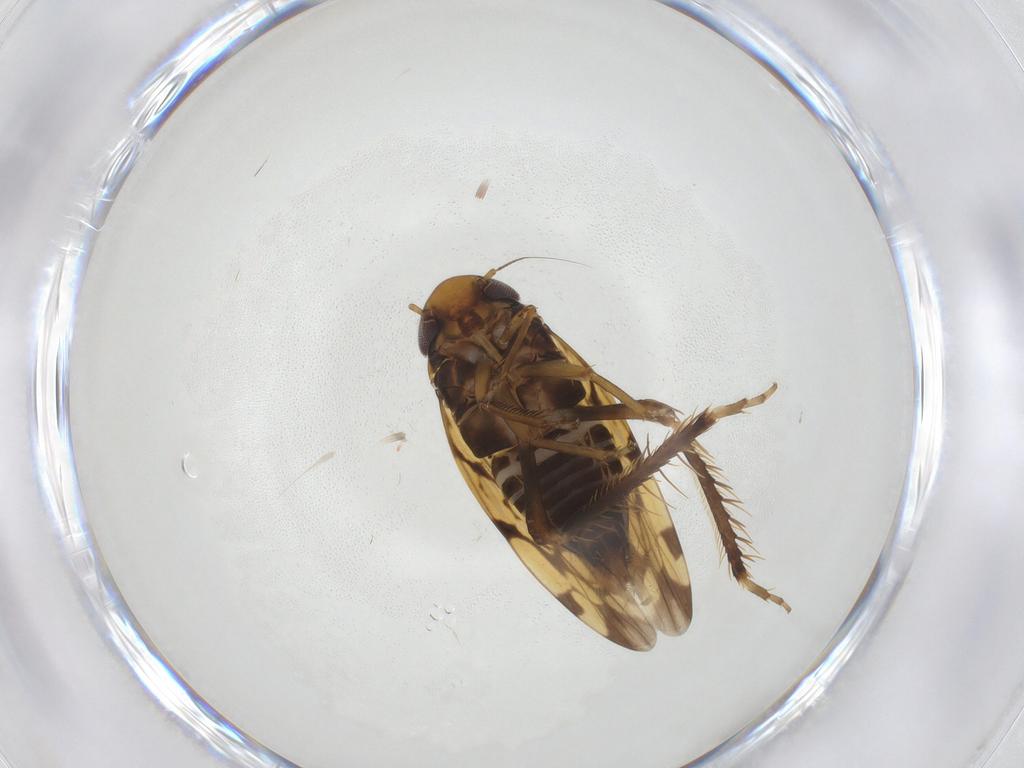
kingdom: Animalia
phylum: Arthropoda
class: Insecta
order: Hemiptera
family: Cicadellidae
